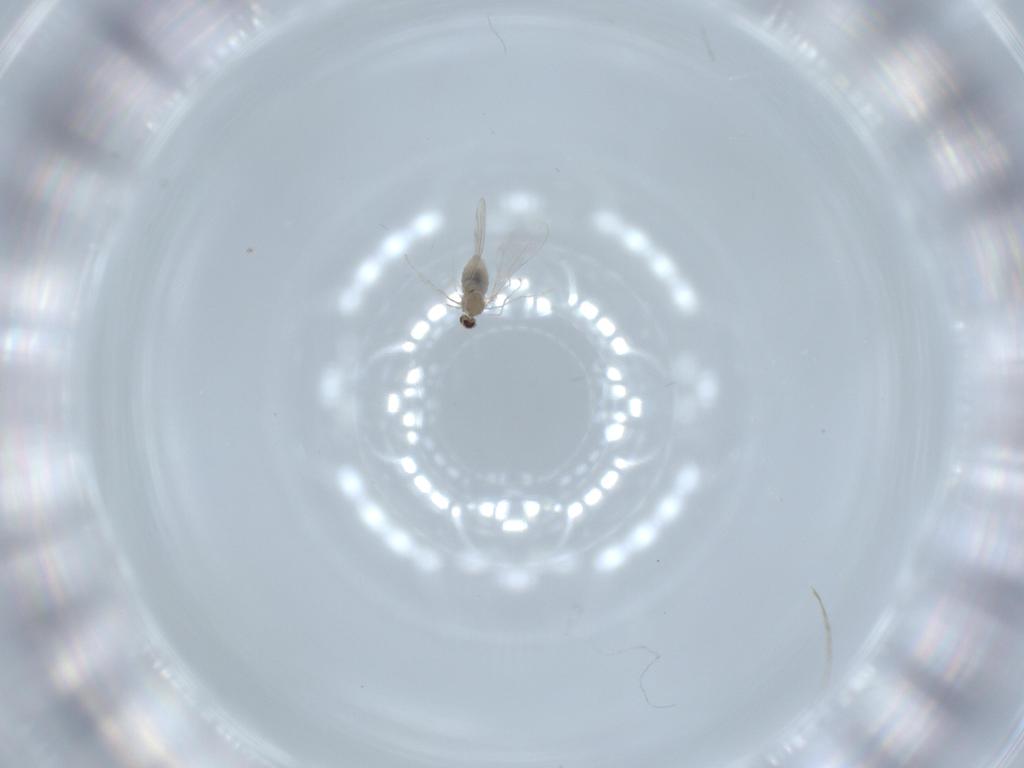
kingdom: Animalia
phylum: Arthropoda
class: Insecta
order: Diptera
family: Cecidomyiidae
